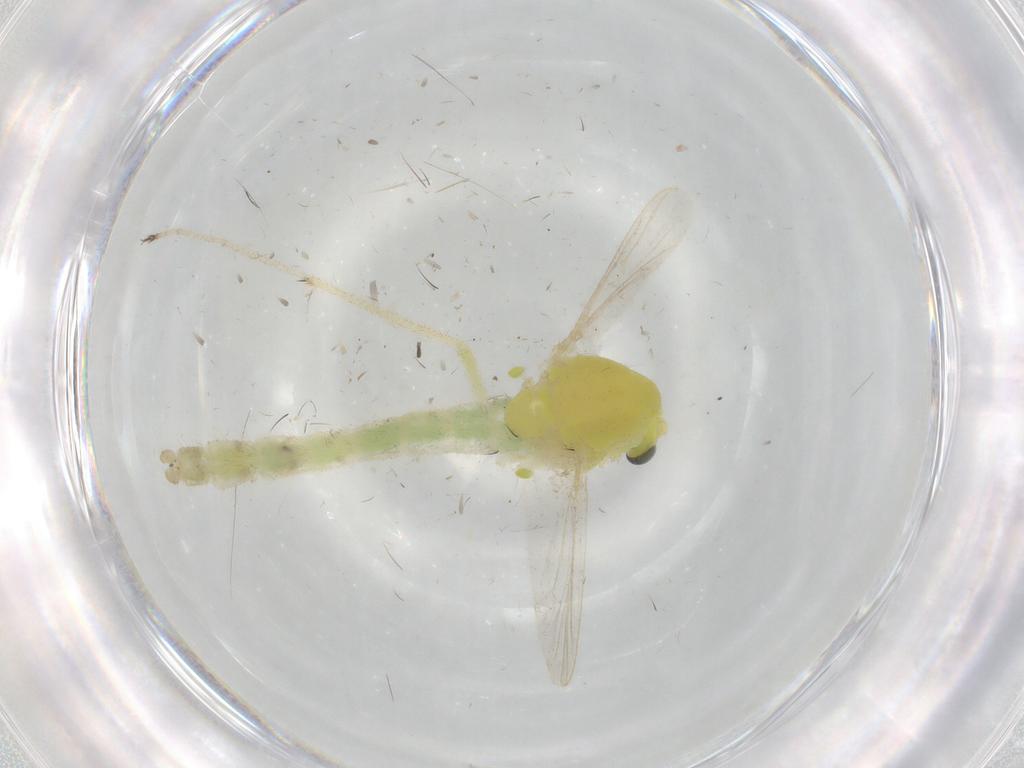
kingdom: Animalia
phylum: Arthropoda
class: Insecta
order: Diptera
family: Chironomidae
